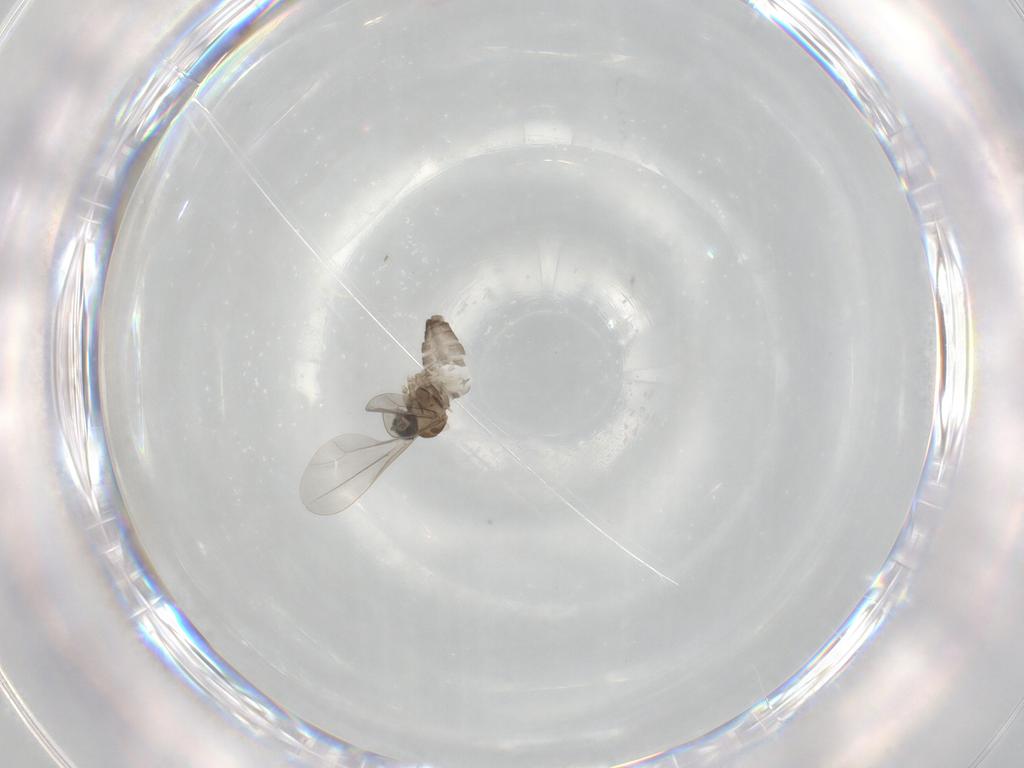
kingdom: Animalia
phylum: Arthropoda
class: Insecta
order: Diptera
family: Cecidomyiidae
